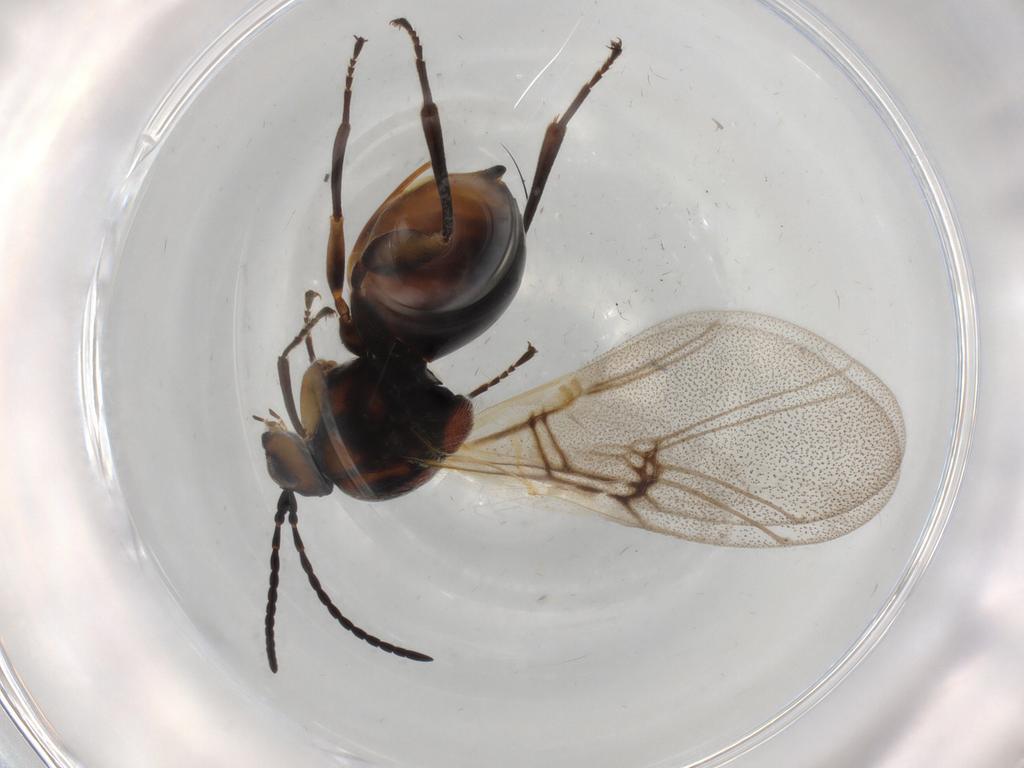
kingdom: Animalia
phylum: Arthropoda
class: Insecta
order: Hymenoptera
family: Cynipidae
